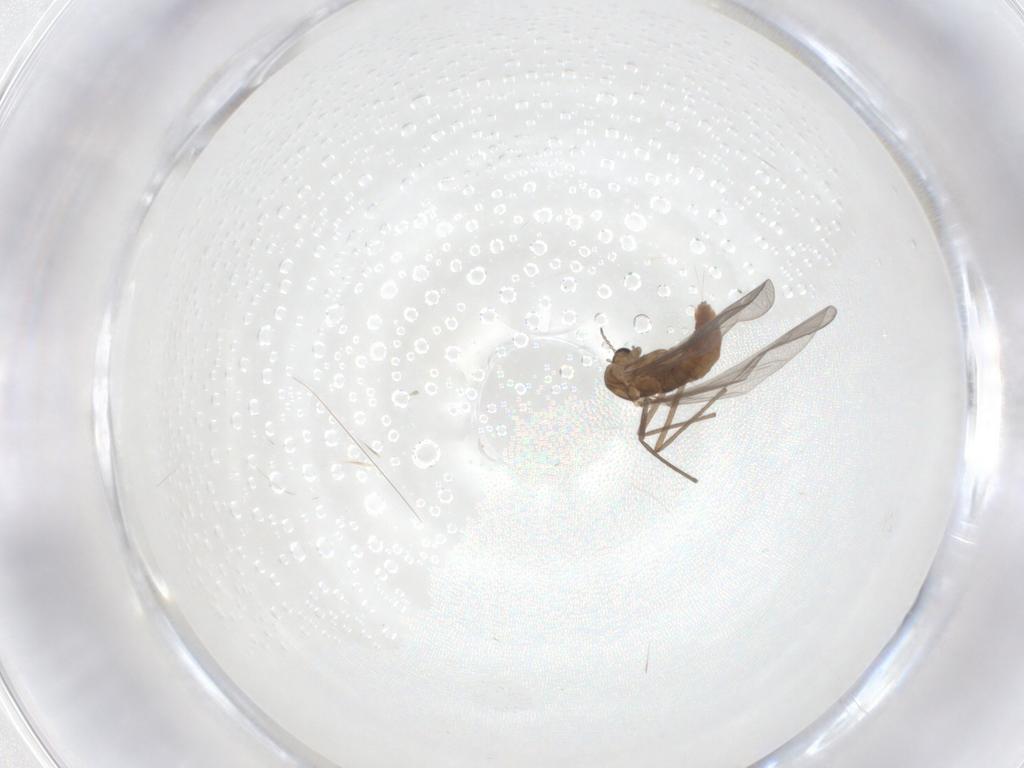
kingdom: Animalia
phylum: Arthropoda
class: Insecta
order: Diptera
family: Chironomidae
